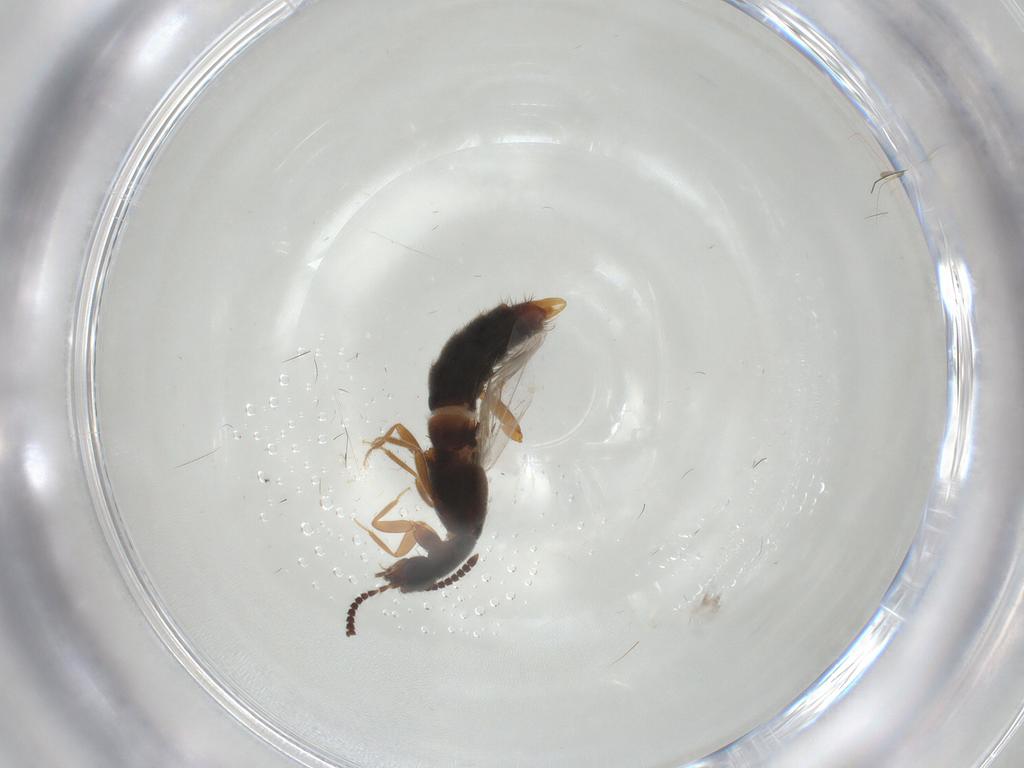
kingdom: Animalia
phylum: Arthropoda
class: Insecta
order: Coleoptera
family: Staphylinidae
